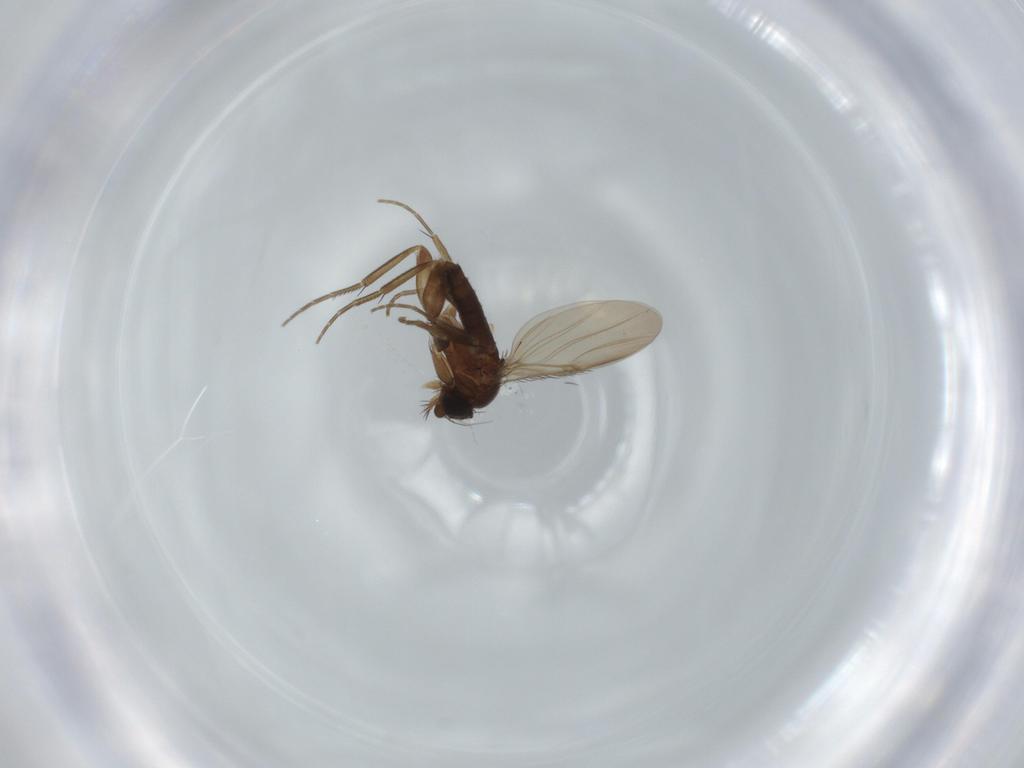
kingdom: Animalia
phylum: Arthropoda
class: Insecta
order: Diptera
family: Phoridae
